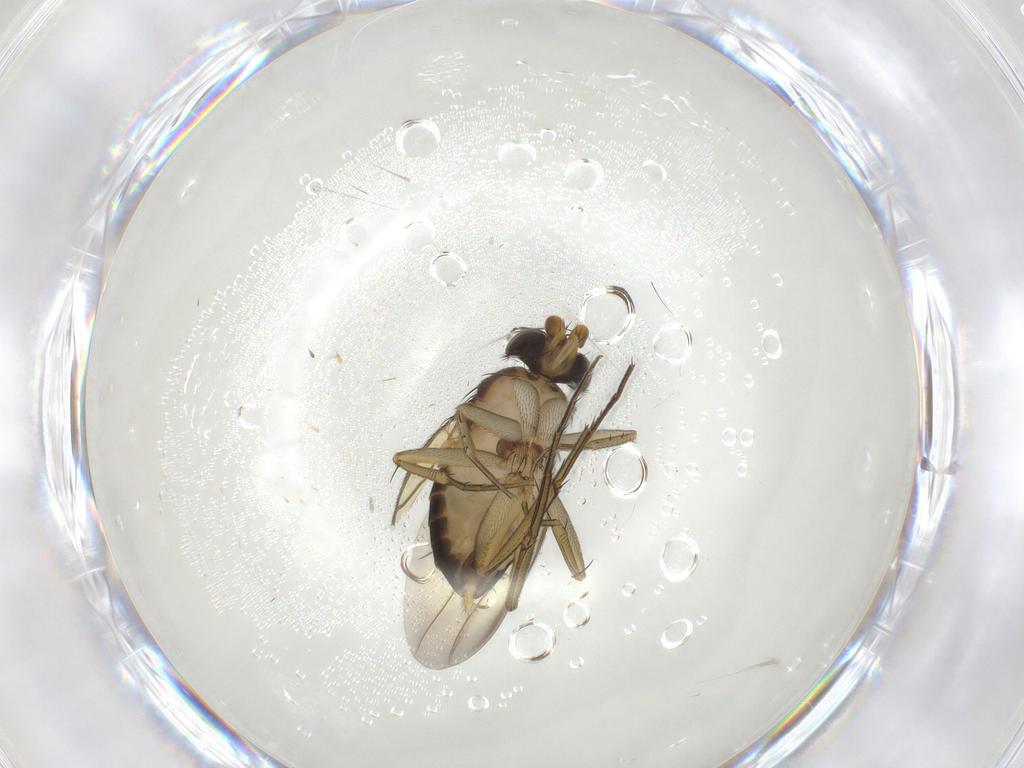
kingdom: Animalia
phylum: Arthropoda
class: Insecta
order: Diptera
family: Phoridae
